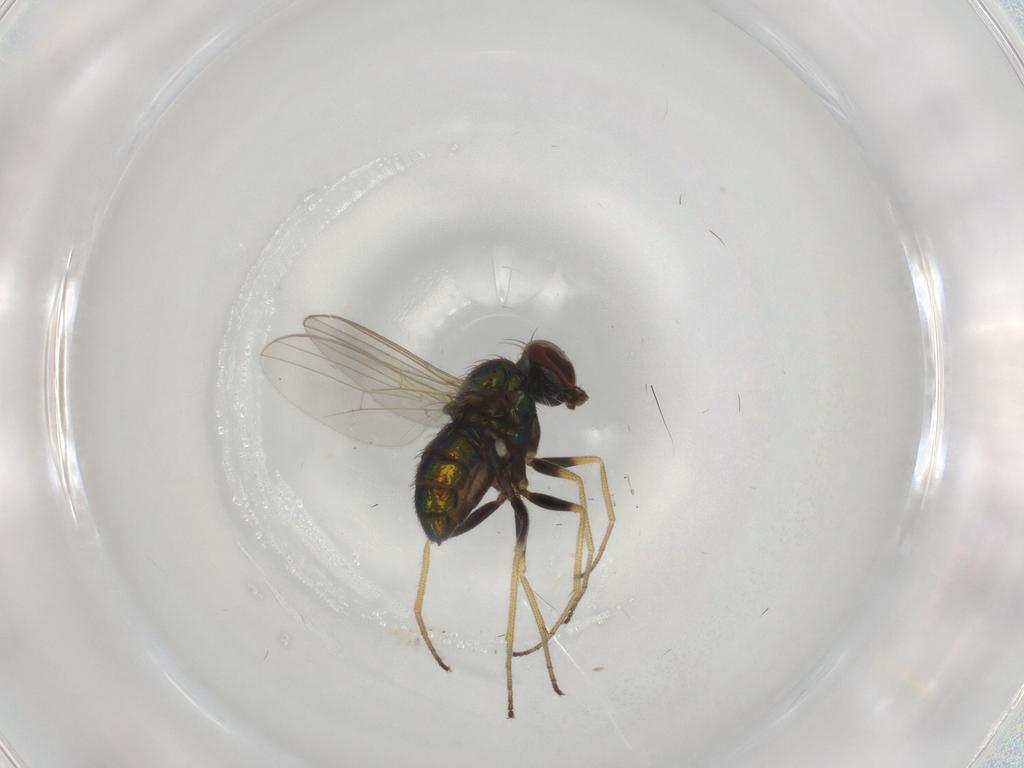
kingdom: Animalia
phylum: Arthropoda
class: Insecta
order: Diptera
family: Dolichopodidae
